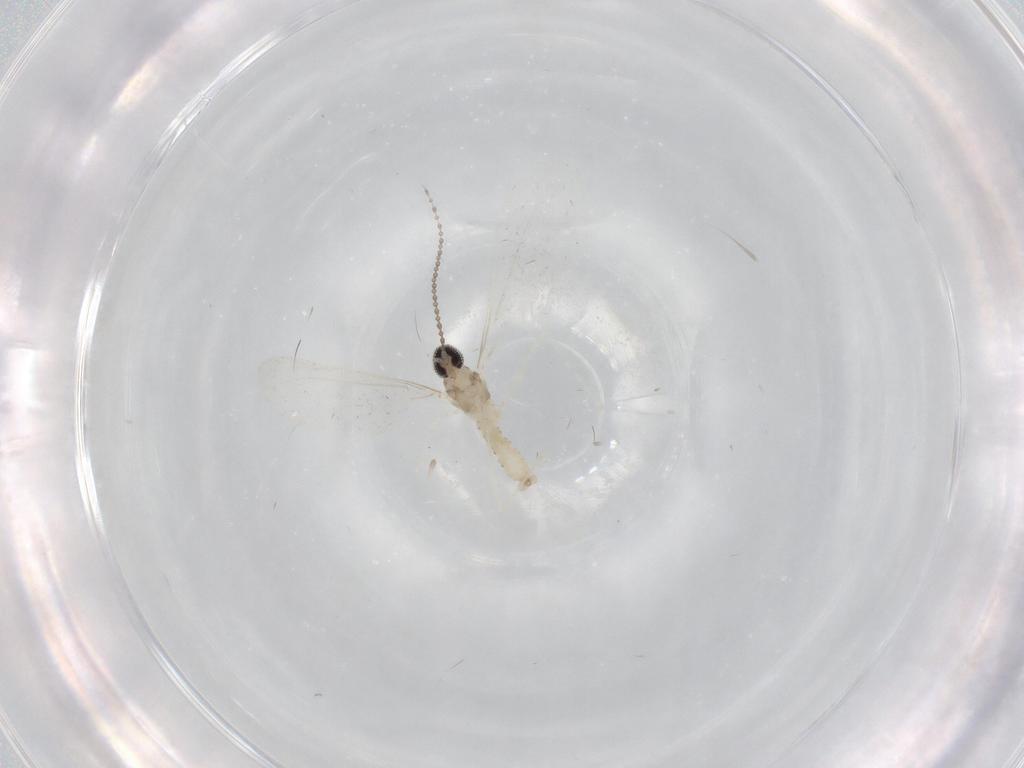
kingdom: Animalia
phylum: Arthropoda
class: Insecta
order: Diptera
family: Cecidomyiidae
